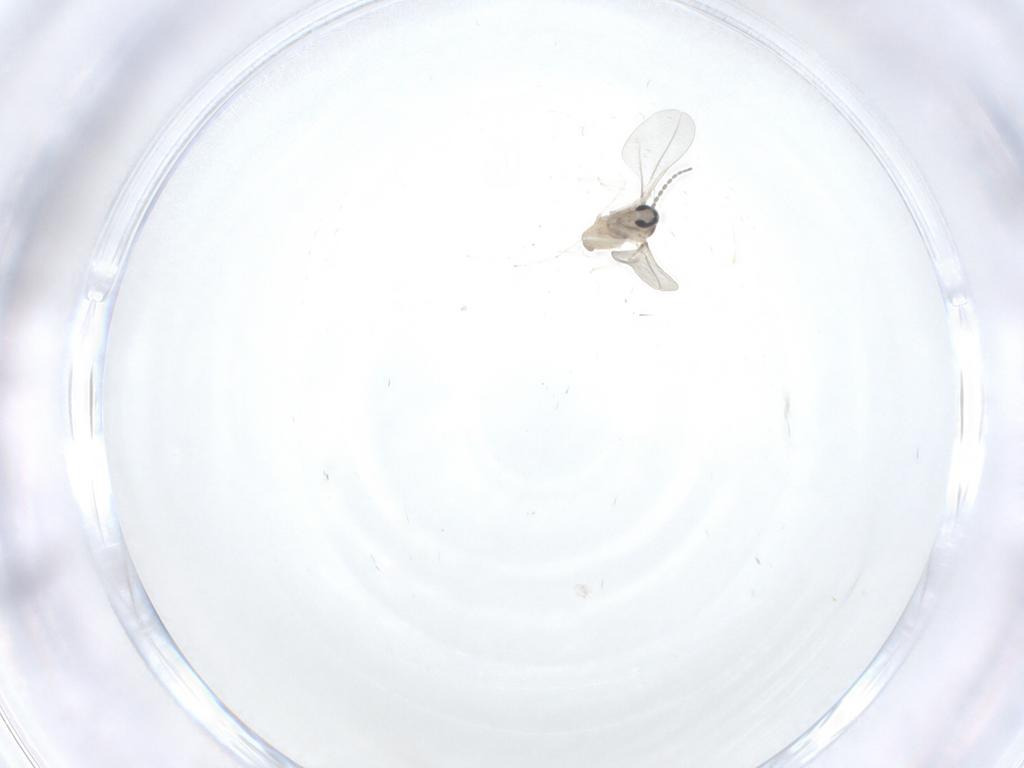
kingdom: Animalia
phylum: Arthropoda
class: Insecta
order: Diptera
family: Cecidomyiidae
